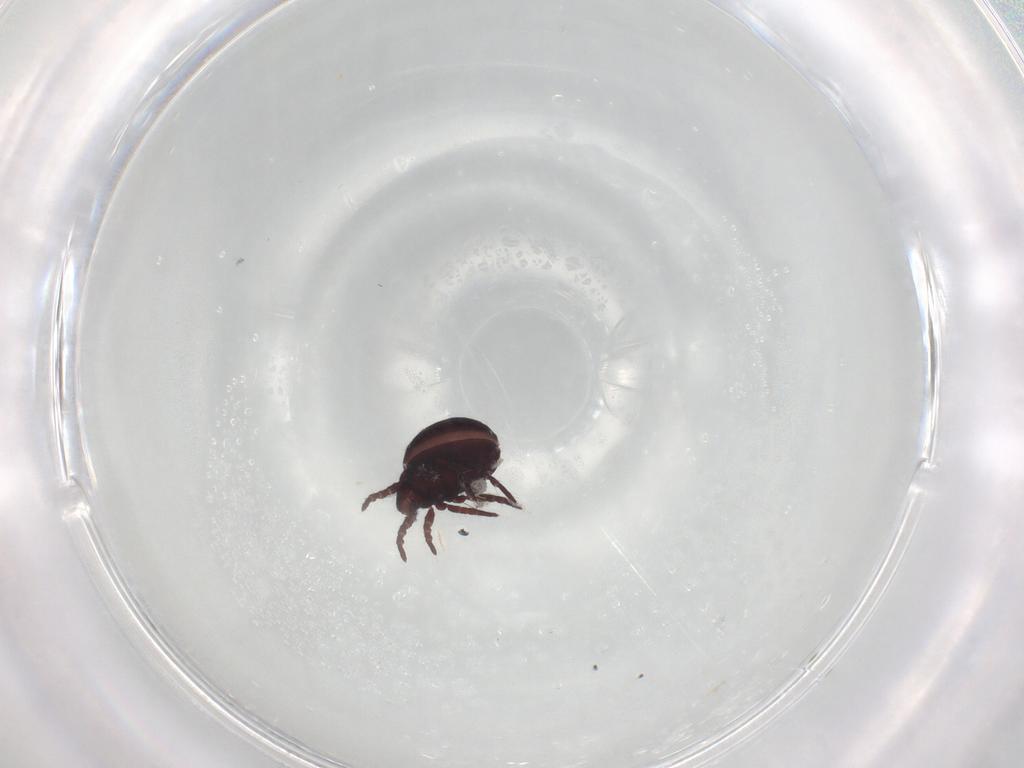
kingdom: Animalia
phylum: Arthropoda
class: Arachnida
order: Sarcoptiformes
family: Hermanniidae
